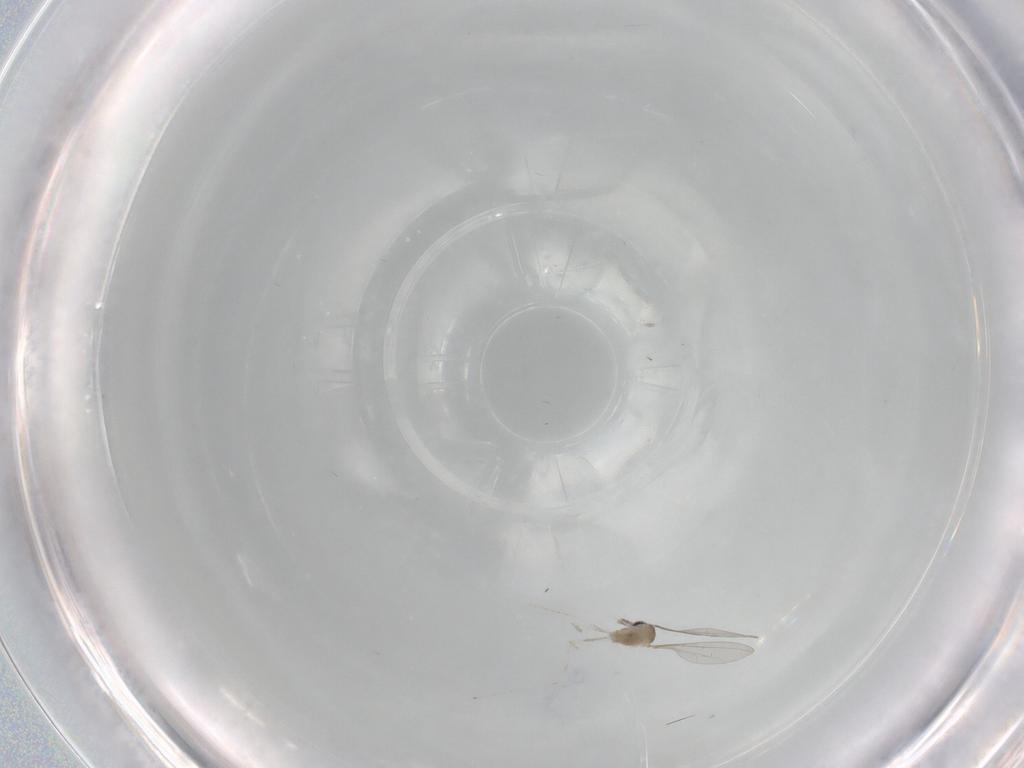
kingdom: Animalia
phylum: Arthropoda
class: Insecta
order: Diptera
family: Cecidomyiidae
